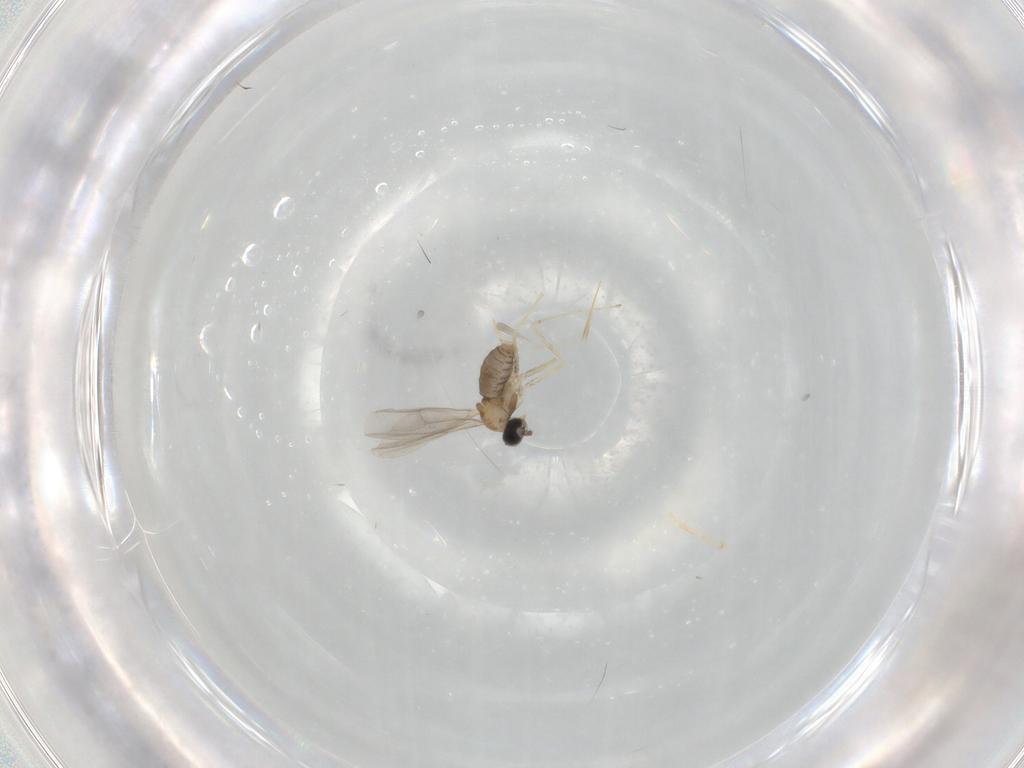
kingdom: Animalia
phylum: Arthropoda
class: Insecta
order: Diptera
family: Cecidomyiidae
